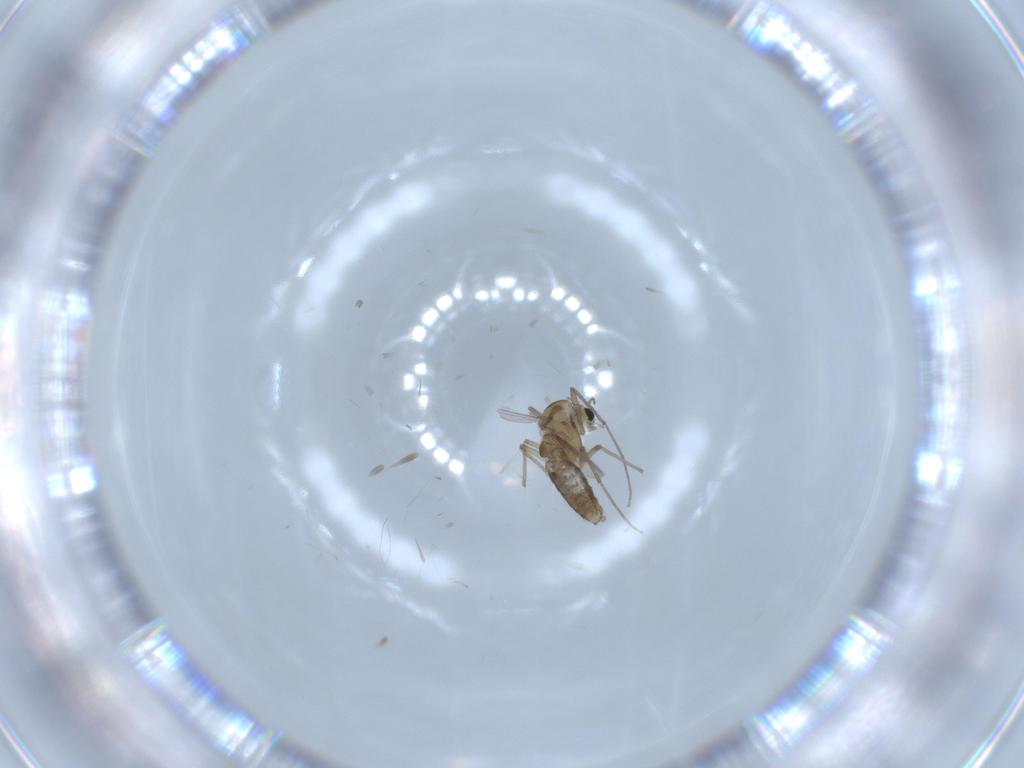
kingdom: Animalia
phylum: Arthropoda
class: Insecta
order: Diptera
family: Chironomidae
